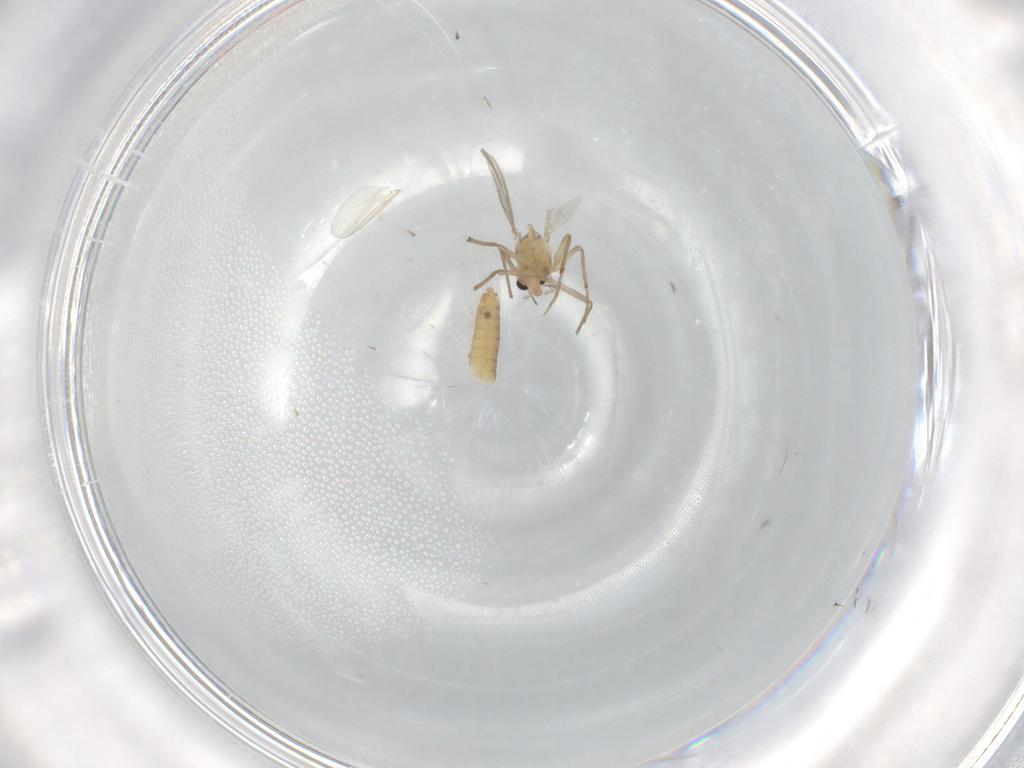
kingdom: Animalia
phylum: Arthropoda
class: Insecta
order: Diptera
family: Chironomidae
